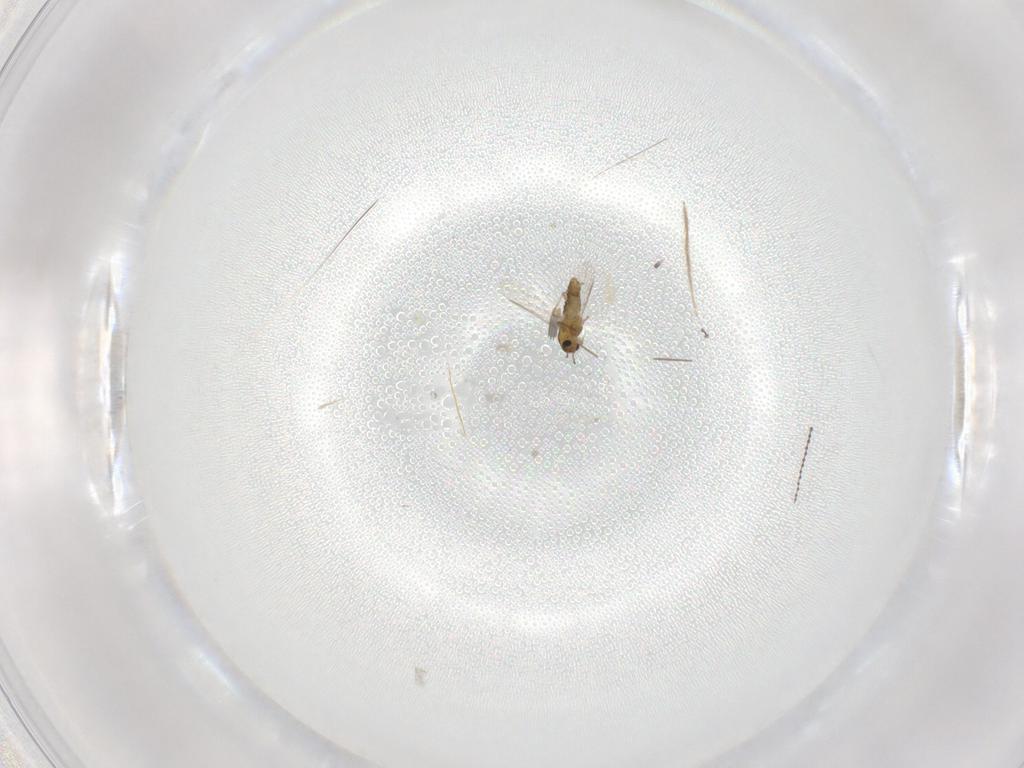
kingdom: Animalia
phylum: Arthropoda
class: Insecta
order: Diptera
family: Chironomidae
